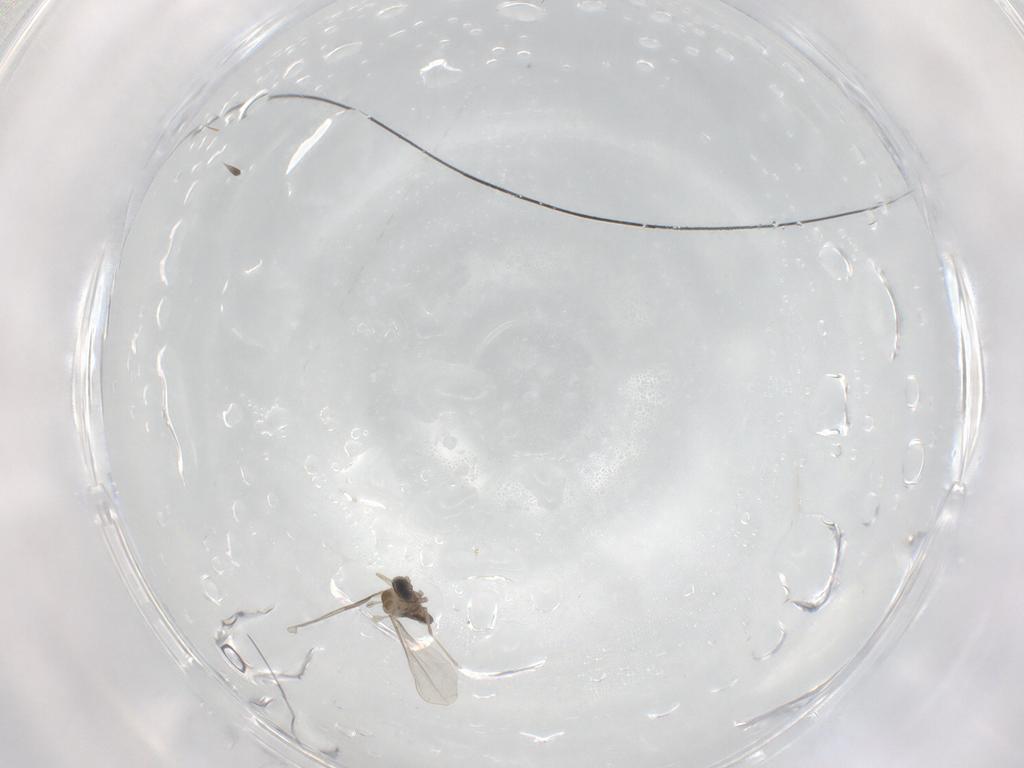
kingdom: Animalia
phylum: Arthropoda
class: Insecta
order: Diptera
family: Cecidomyiidae
